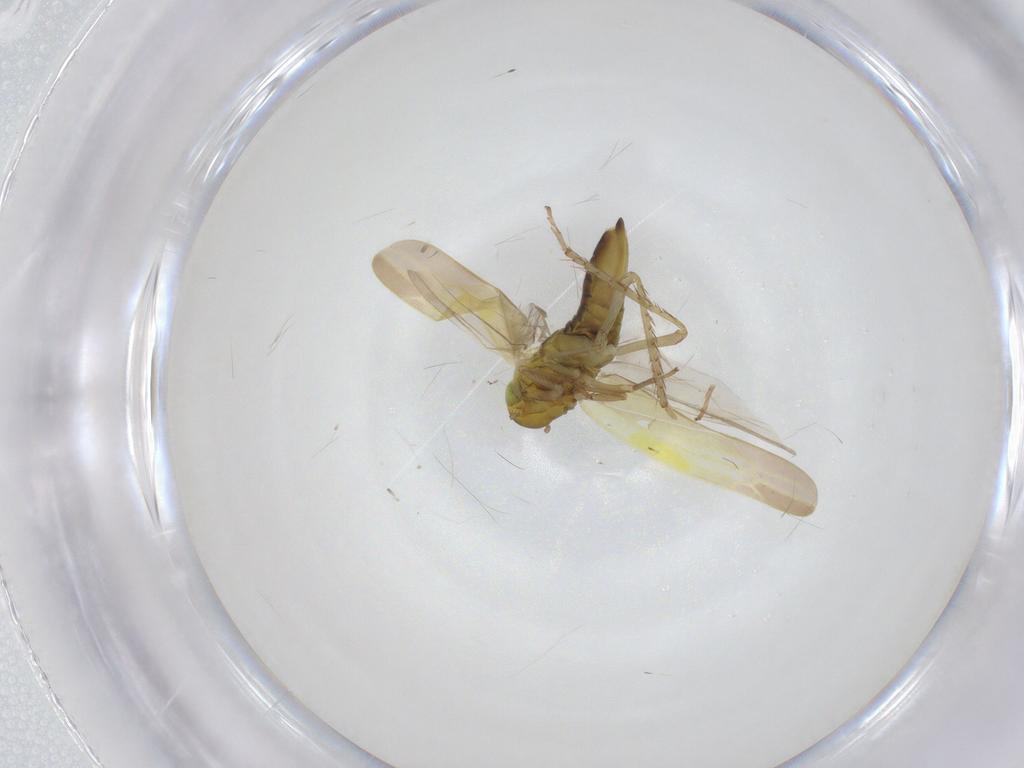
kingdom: Animalia
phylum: Arthropoda
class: Insecta
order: Hemiptera
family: Cicadellidae
